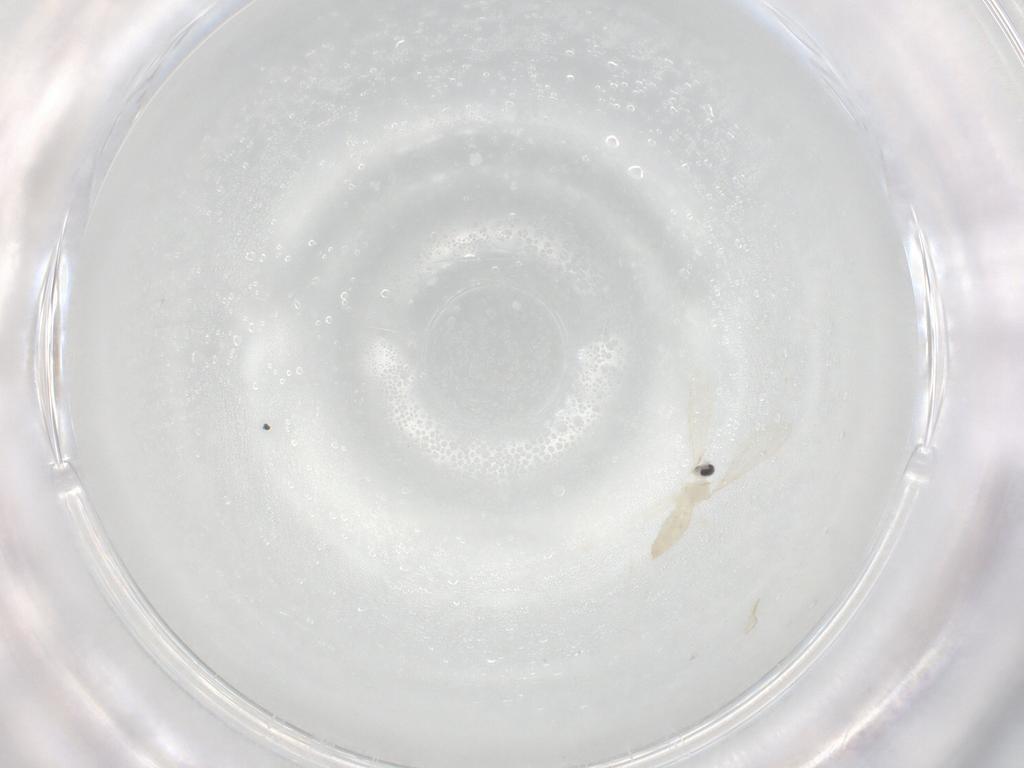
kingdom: Animalia
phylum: Arthropoda
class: Insecta
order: Diptera
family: Cecidomyiidae
